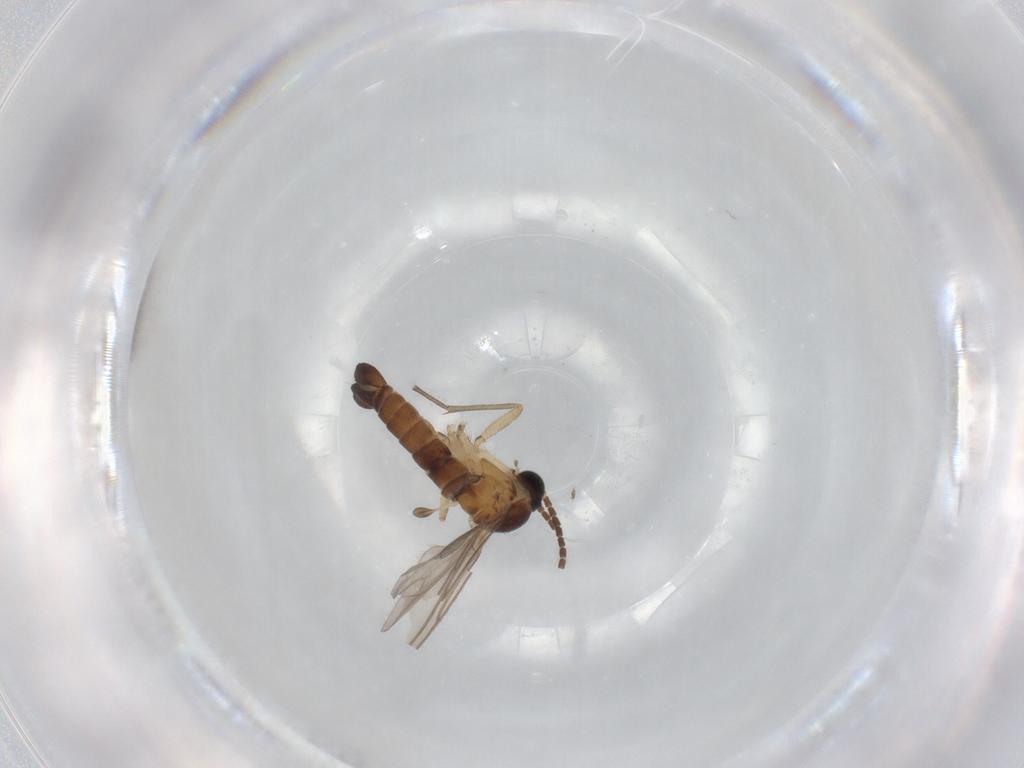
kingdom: Animalia
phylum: Arthropoda
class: Insecta
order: Diptera
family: Sciaridae
